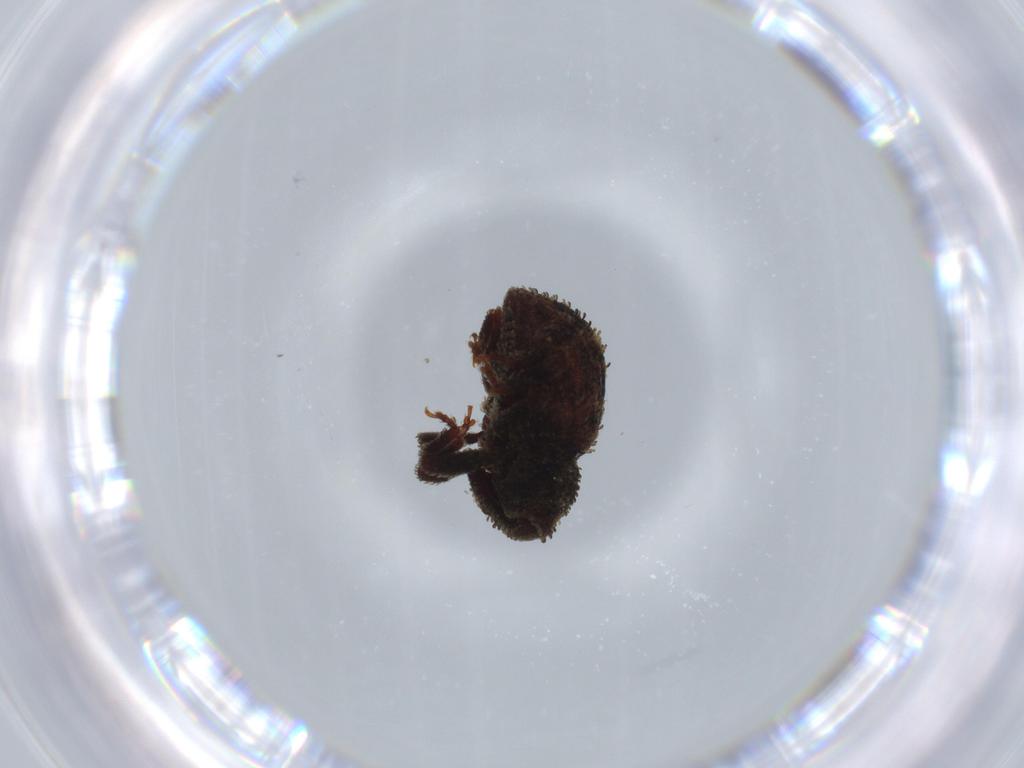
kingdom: Animalia
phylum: Arthropoda
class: Insecta
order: Coleoptera
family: Curculionidae
